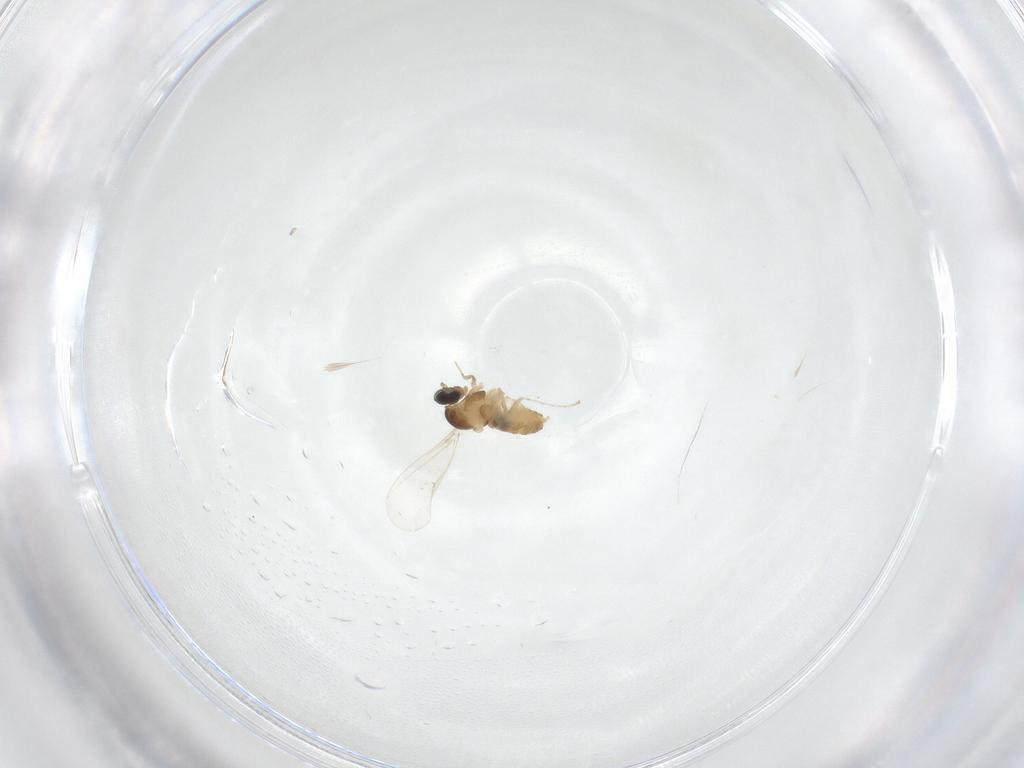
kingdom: Animalia
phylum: Arthropoda
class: Insecta
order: Diptera
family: Cecidomyiidae
